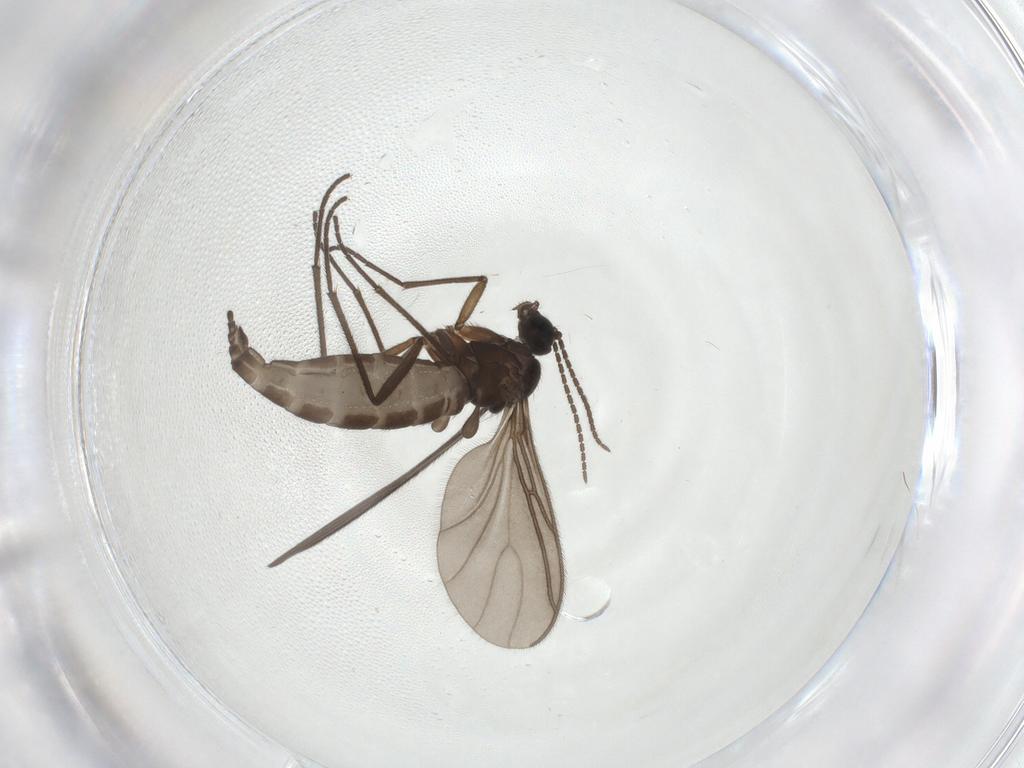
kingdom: Animalia
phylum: Arthropoda
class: Insecta
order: Diptera
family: Sciaridae
